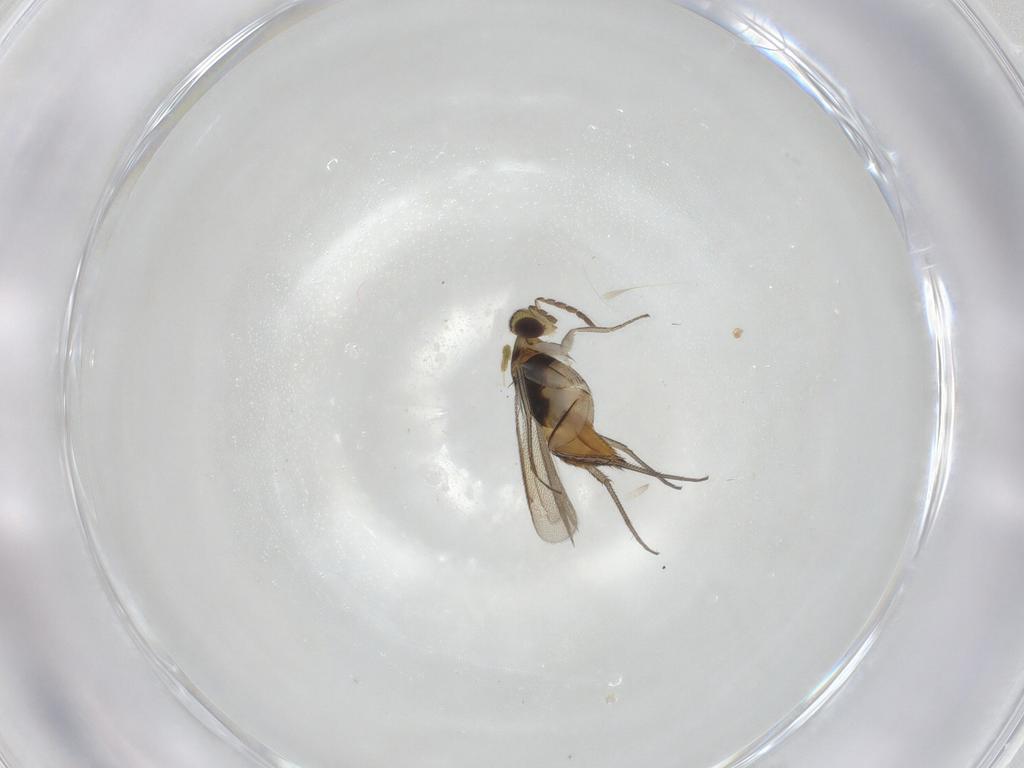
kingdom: Animalia
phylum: Arthropoda
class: Insecta
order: Hymenoptera
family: Eulophidae
